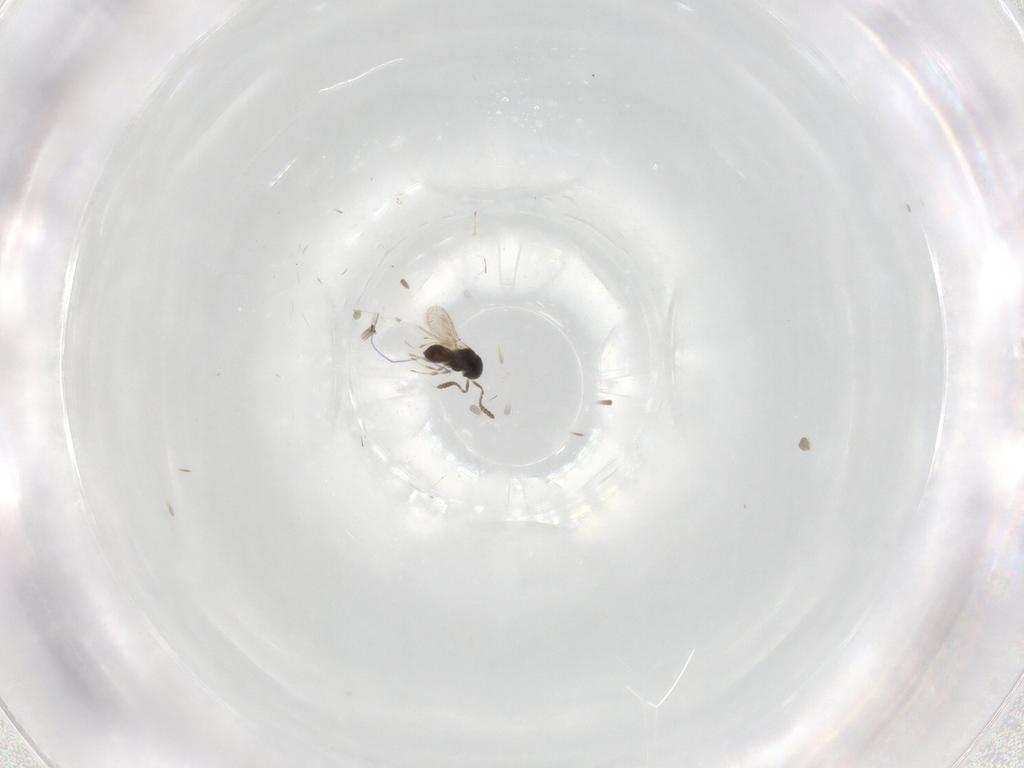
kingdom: Animalia
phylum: Arthropoda
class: Insecta
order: Hymenoptera
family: Scelionidae
